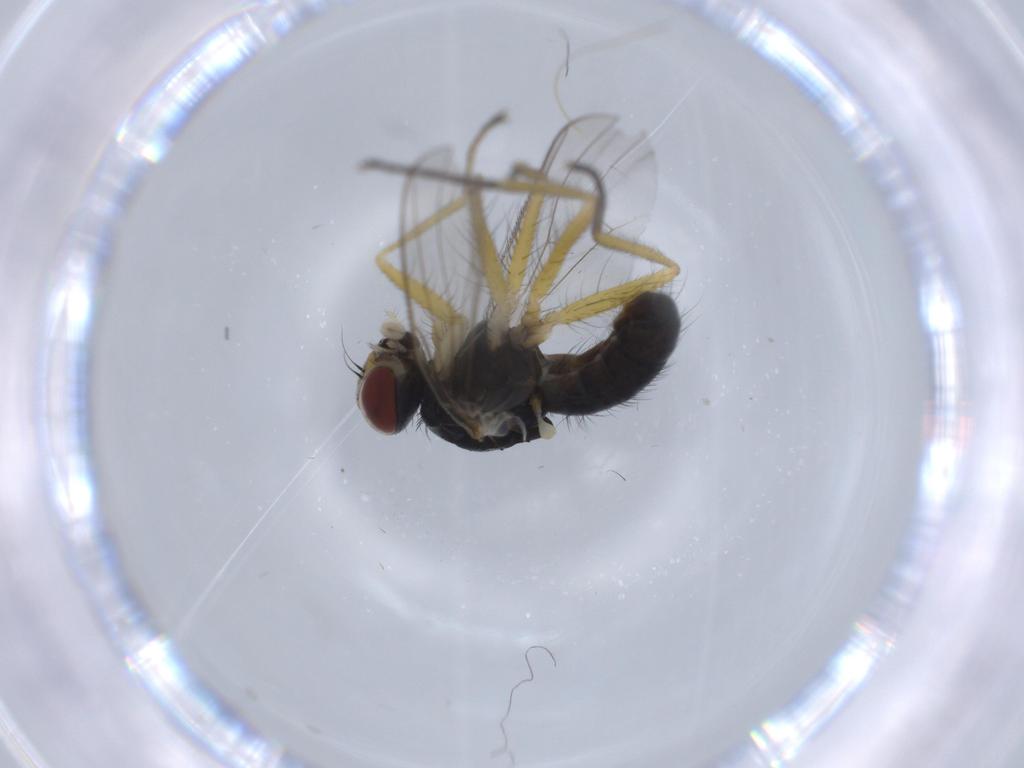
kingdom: Animalia
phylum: Arthropoda
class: Insecta
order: Diptera
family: Muscidae
